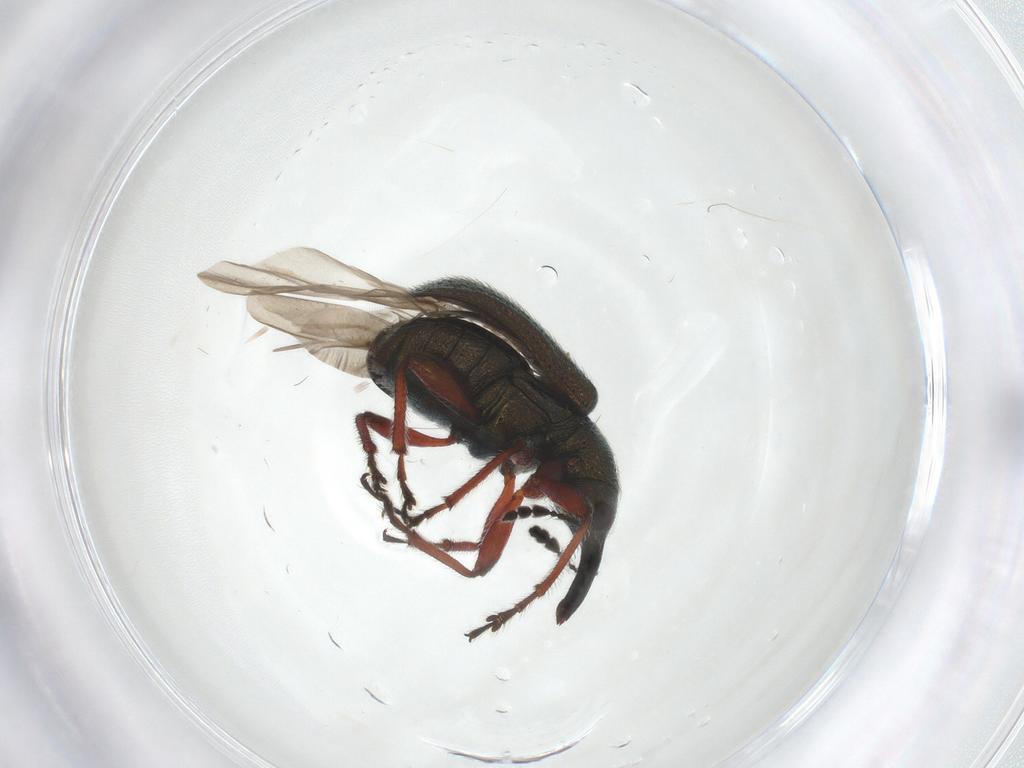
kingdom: Animalia
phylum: Arthropoda
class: Insecta
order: Coleoptera
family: Attelabidae
